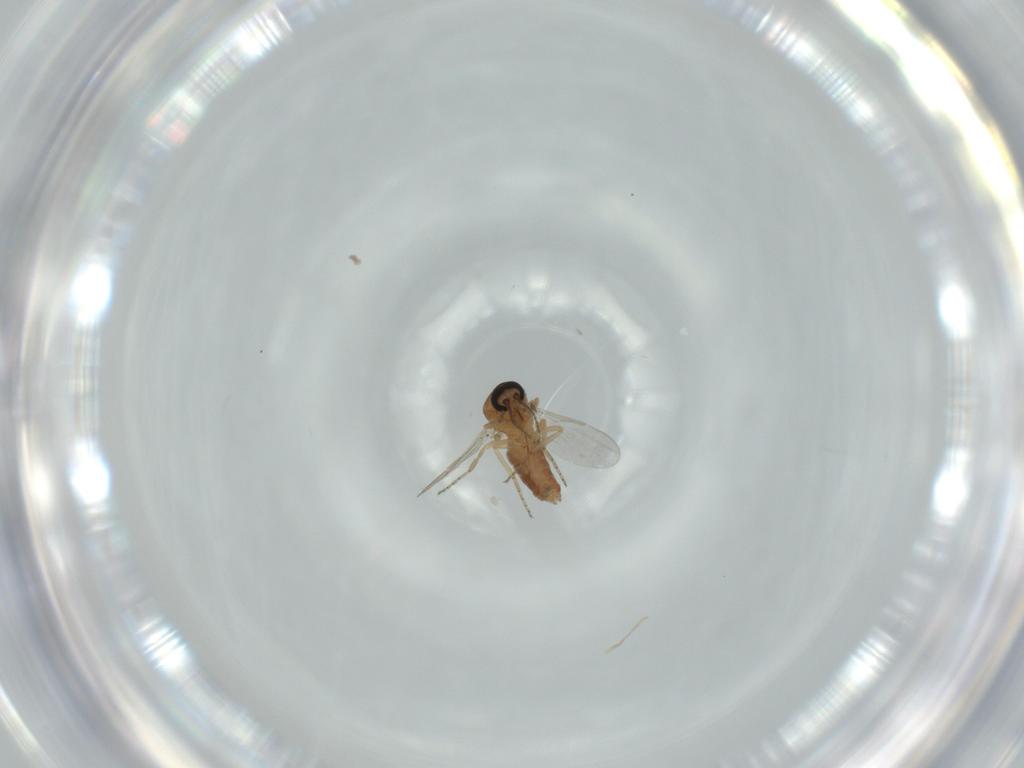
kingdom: Animalia
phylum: Arthropoda
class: Insecta
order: Diptera
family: Ceratopogonidae
